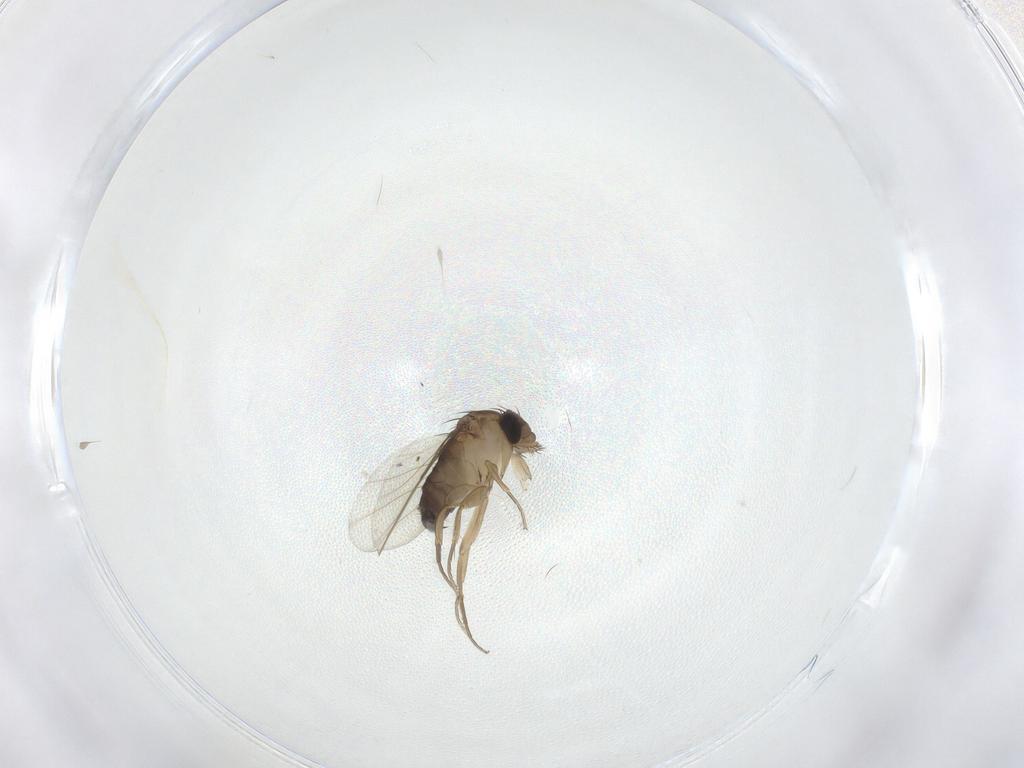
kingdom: Animalia
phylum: Arthropoda
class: Insecta
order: Diptera
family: Phoridae
